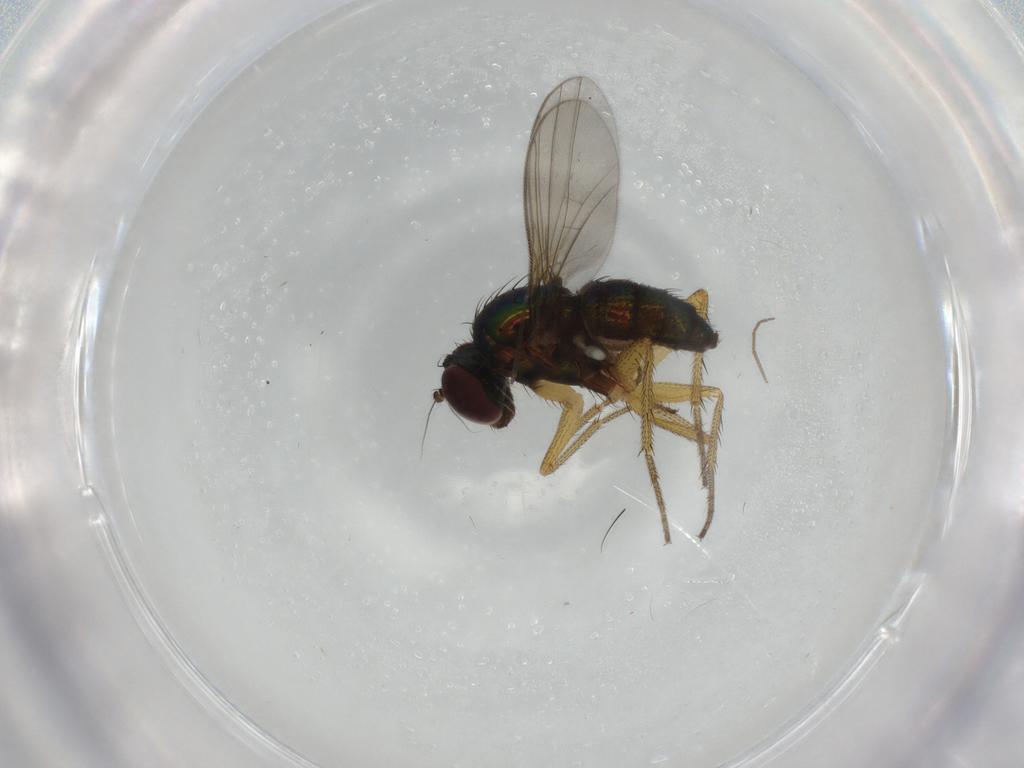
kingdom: Animalia
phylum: Arthropoda
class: Insecta
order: Diptera
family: Dolichopodidae
